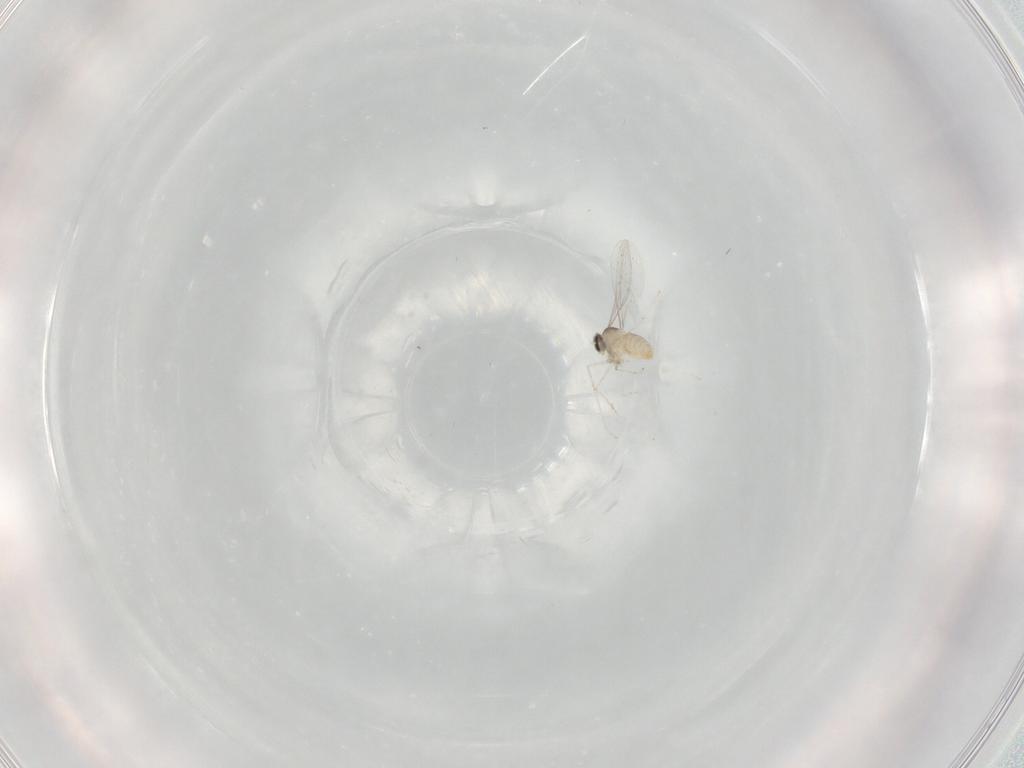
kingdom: Animalia
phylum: Arthropoda
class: Insecta
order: Diptera
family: Cecidomyiidae
